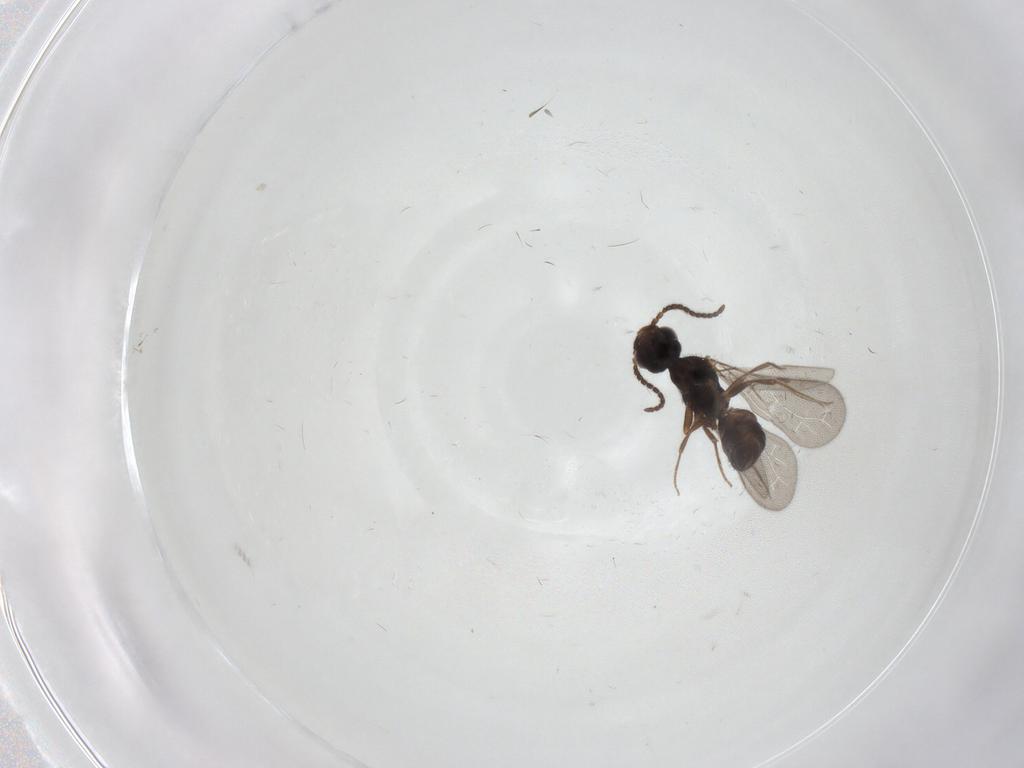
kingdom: Animalia
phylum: Arthropoda
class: Insecta
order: Hymenoptera
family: Bethylidae
